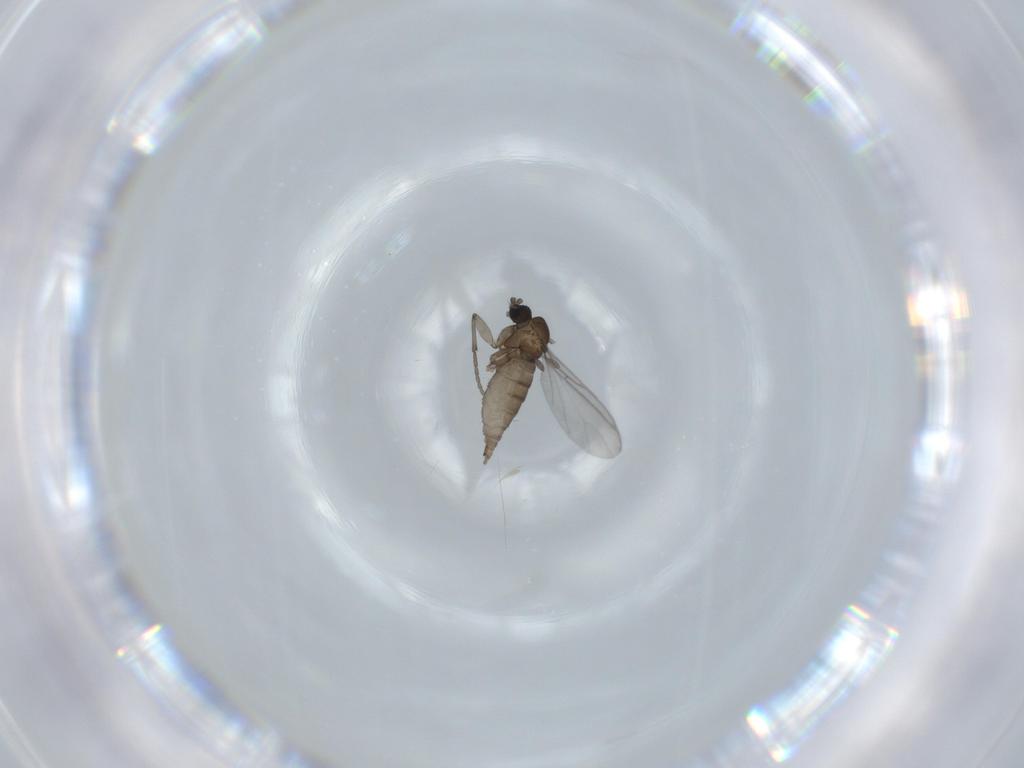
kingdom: Animalia
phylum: Arthropoda
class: Insecta
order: Diptera
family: Sciaridae
